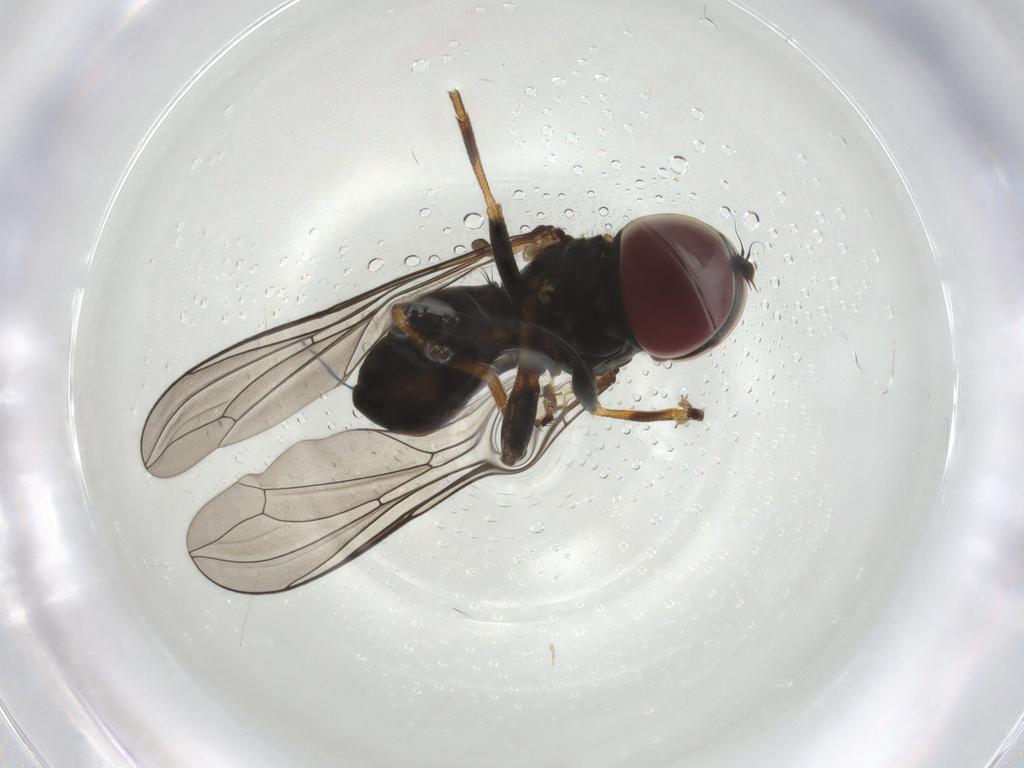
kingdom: Animalia
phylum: Arthropoda
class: Insecta
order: Diptera
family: Pipunculidae
